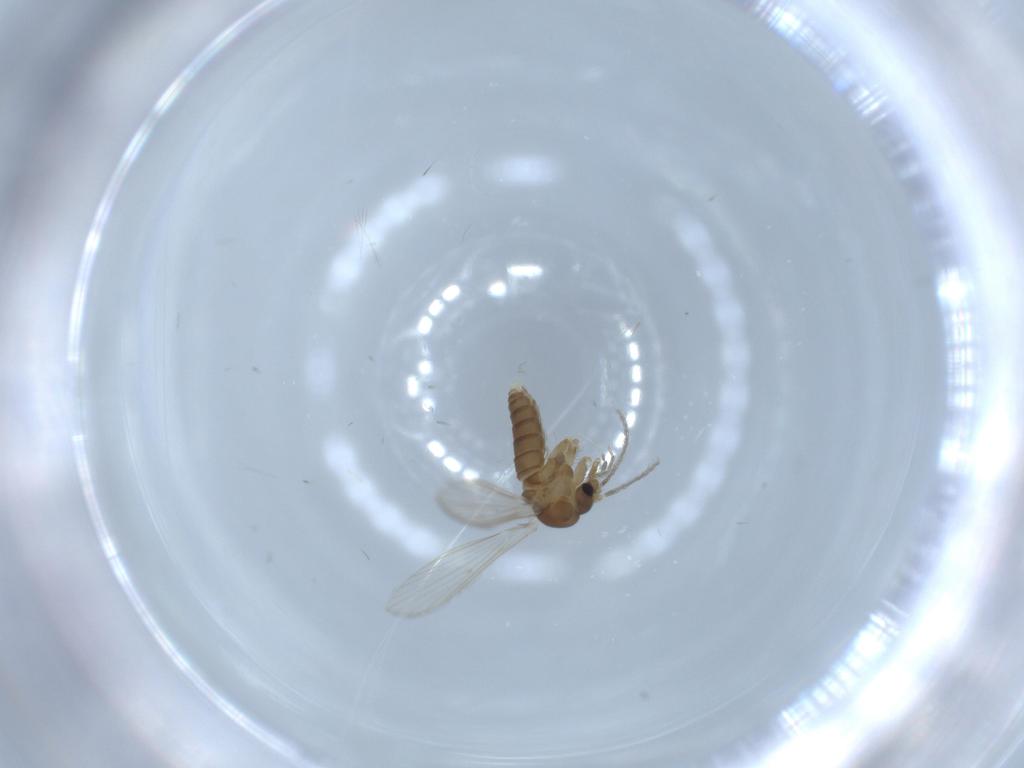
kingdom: Animalia
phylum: Arthropoda
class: Insecta
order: Diptera
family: Psychodidae
